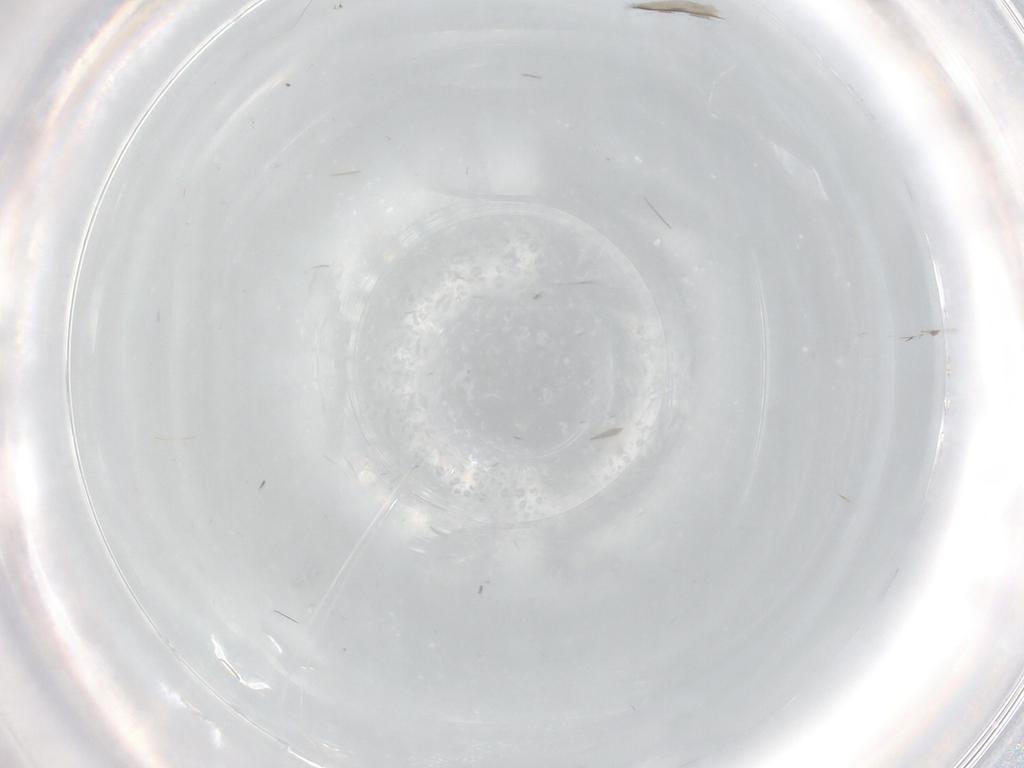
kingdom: Animalia
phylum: Arthropoda
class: Insecta
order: Diptera
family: Phoridae
